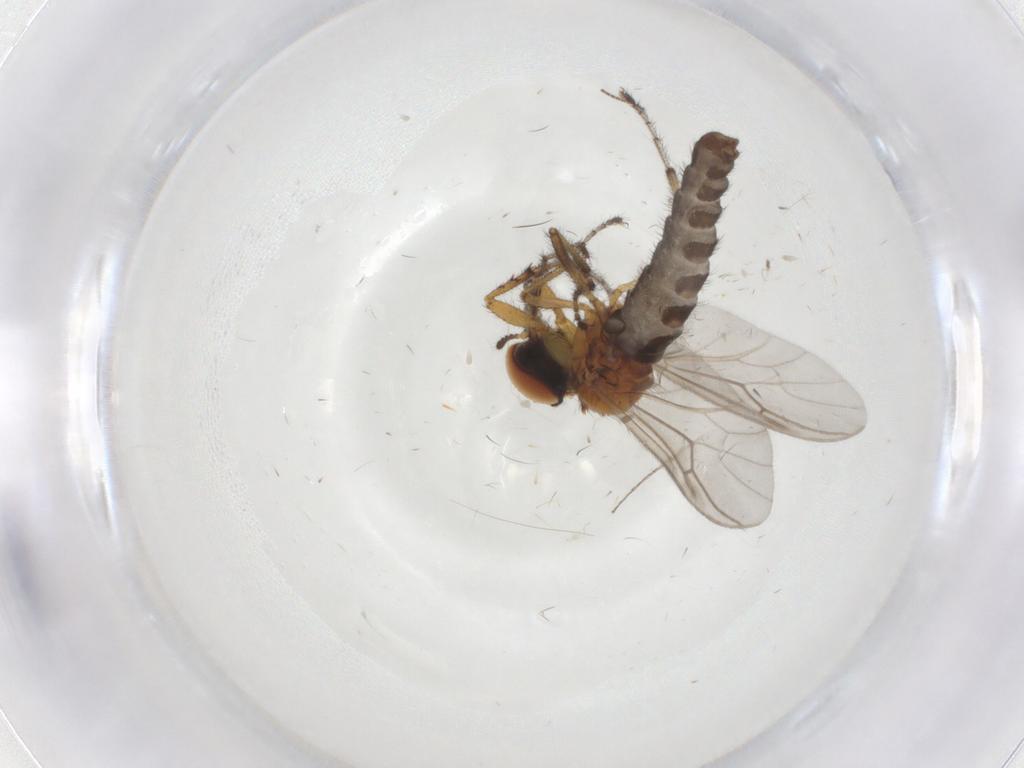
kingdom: Animalia
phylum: Arthropoda
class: Insecta
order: Diptera
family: Bibionidae
